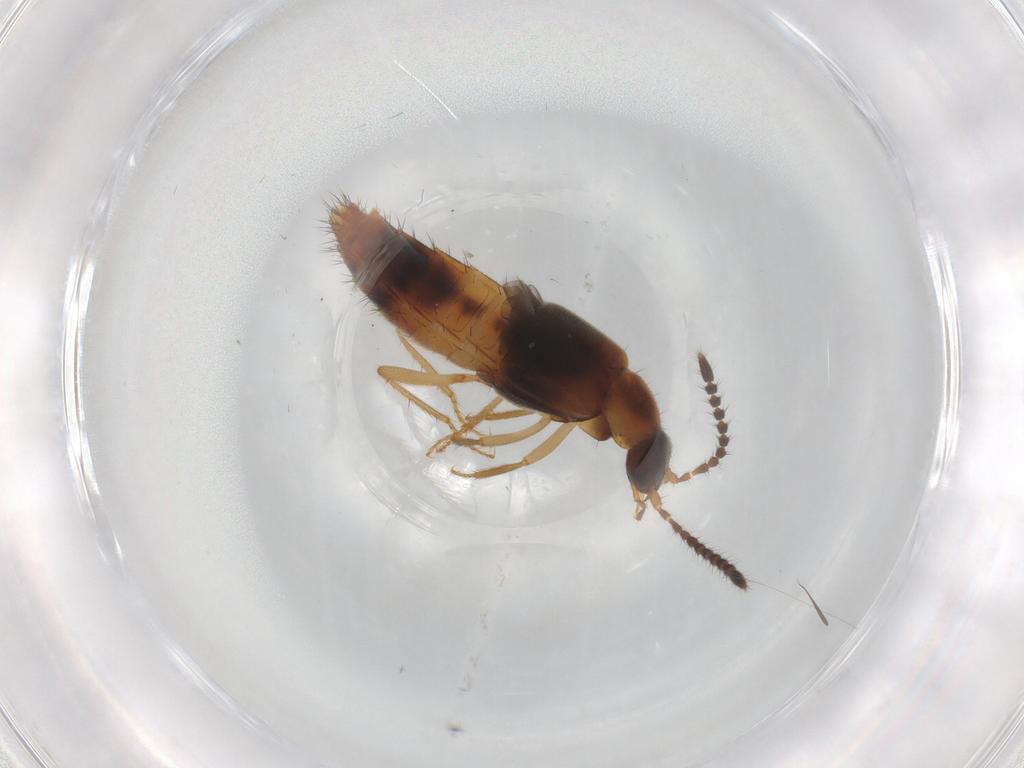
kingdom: Animalia
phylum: Arthropoda
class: Insecta
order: Coleoptera
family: Staphylinidae
